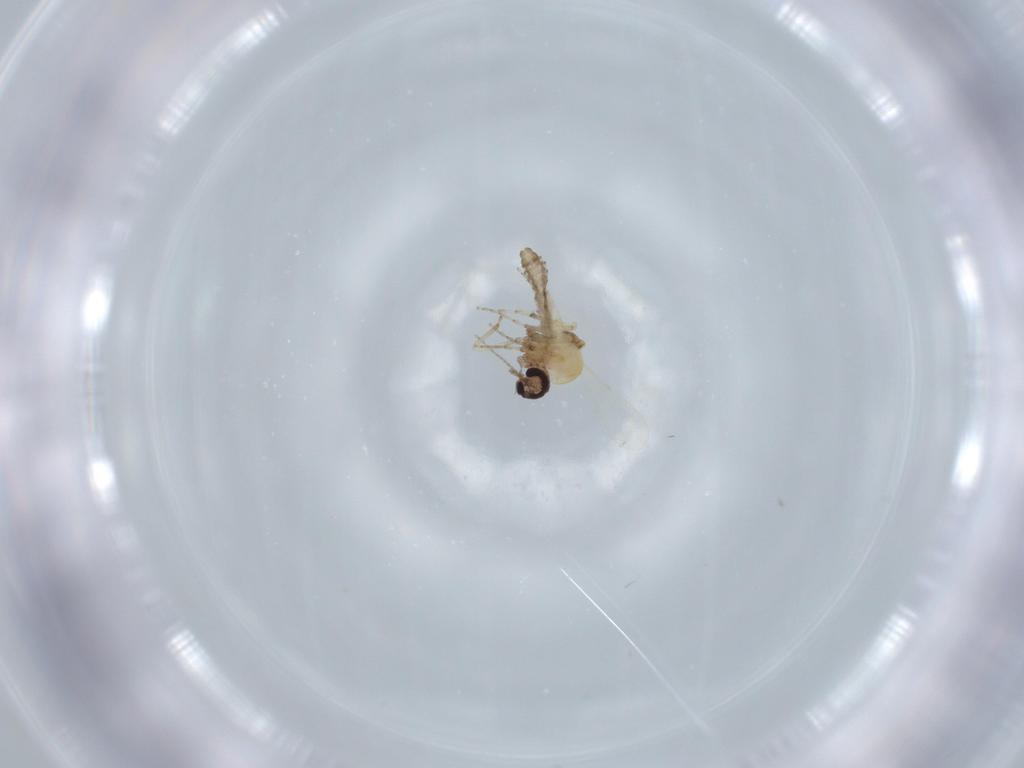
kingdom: Animalia
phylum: Arthropoda
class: Insecta
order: Diptera
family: Ceratopogonidae
